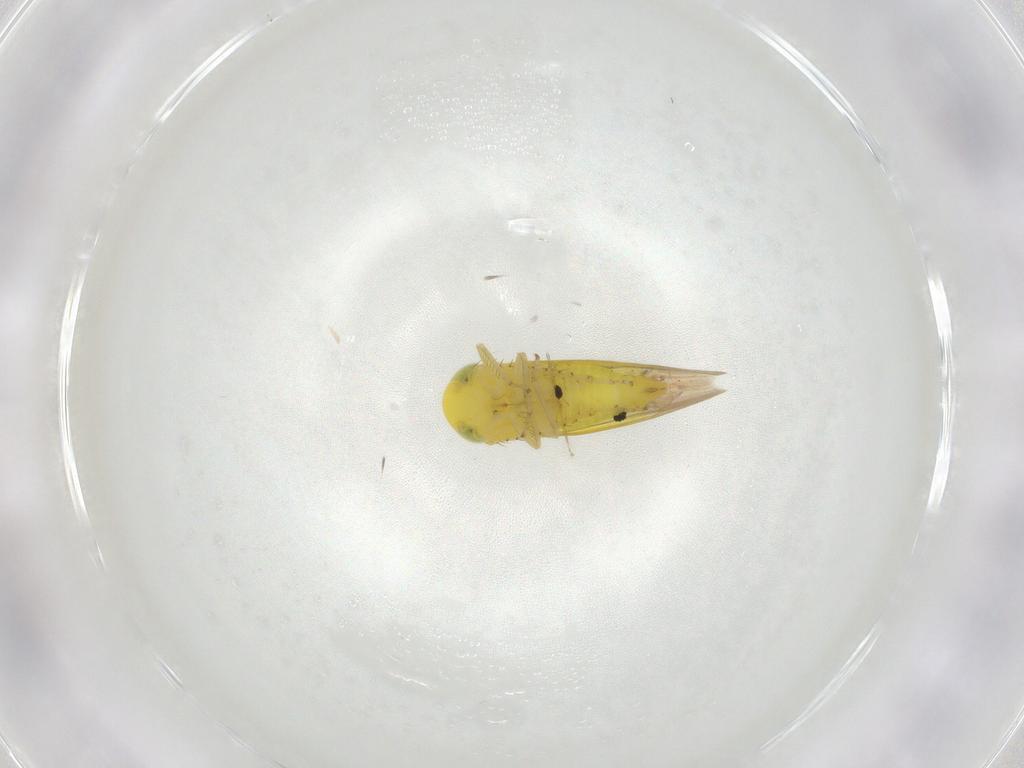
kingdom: Animalia
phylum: Arthropoda
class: Insecta
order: Hemiptera
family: Cicadellidae
